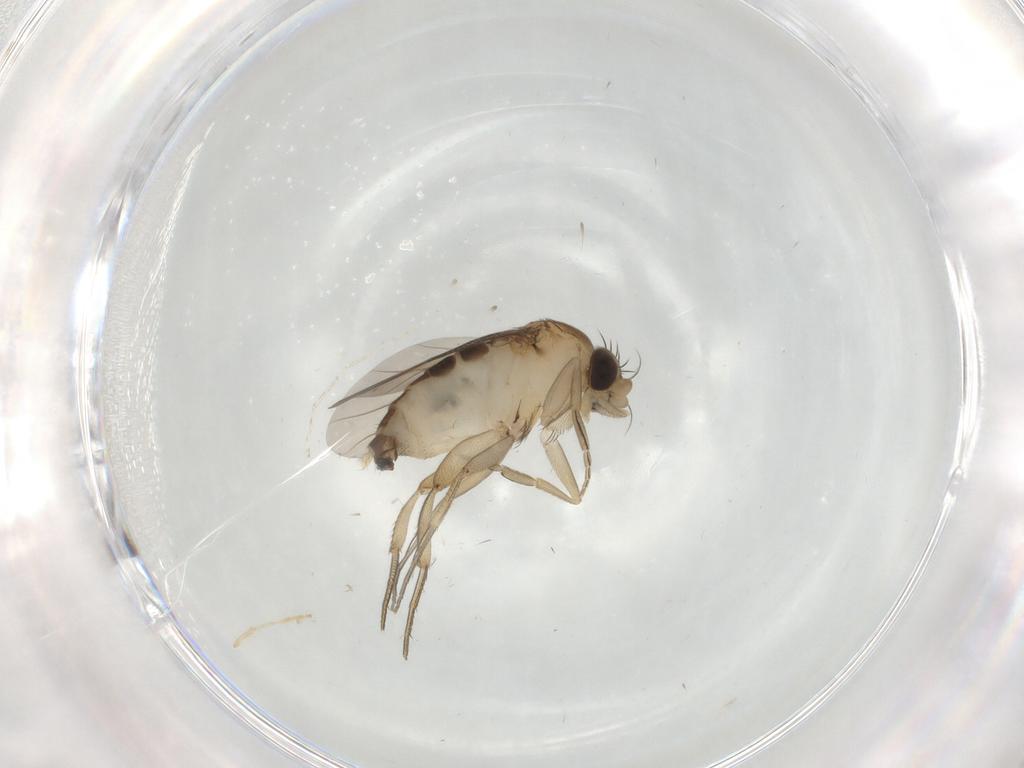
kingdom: Animalia
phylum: Arthropoda
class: Insecta
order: Diptera
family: Phoridae
